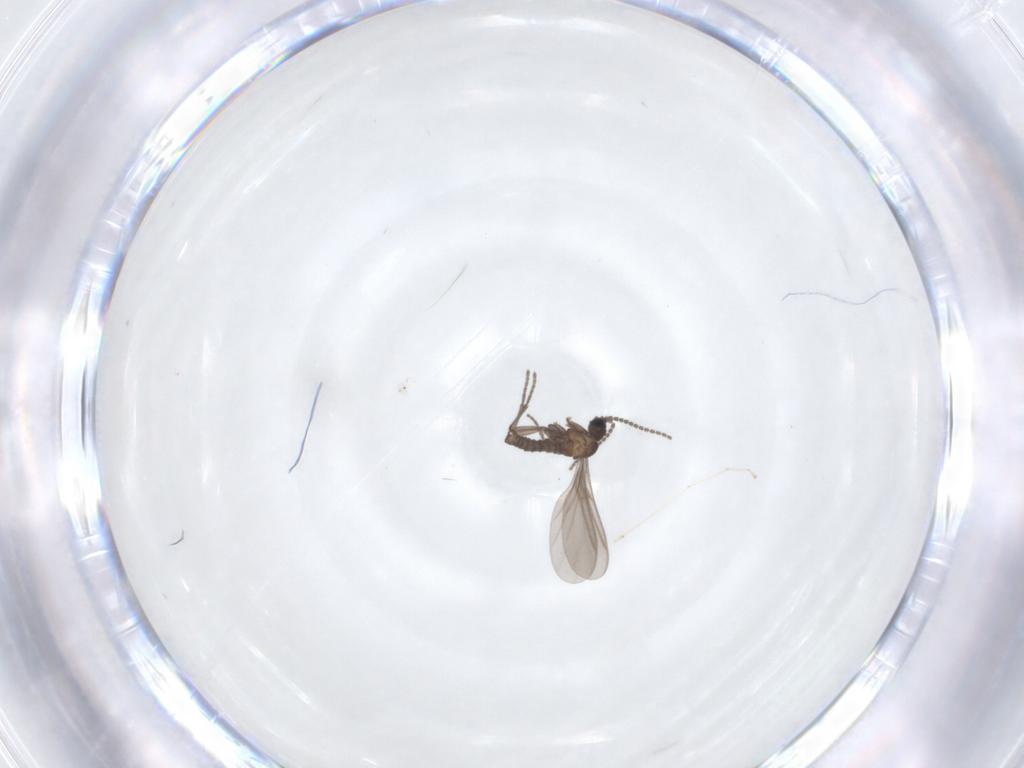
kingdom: Animalia
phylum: Arthropoda
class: Insecta
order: Diptera
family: Cecidomyiidae
